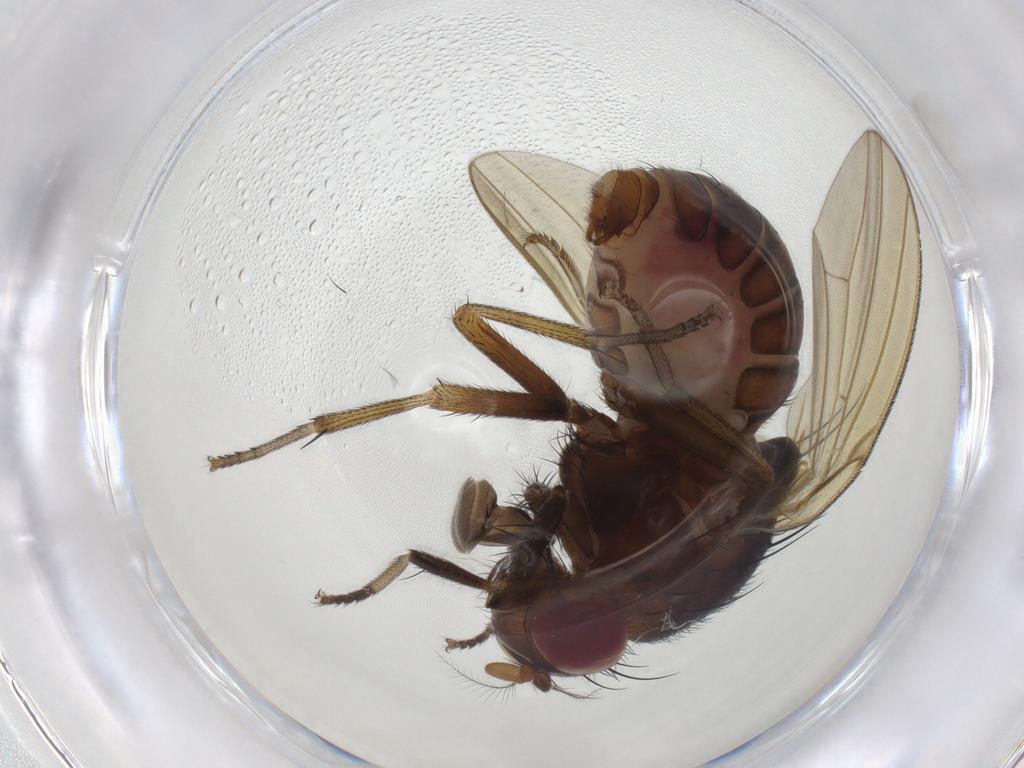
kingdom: Animalia
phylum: Arthropoda
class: Insecta
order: Diptera
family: Limoniidae
